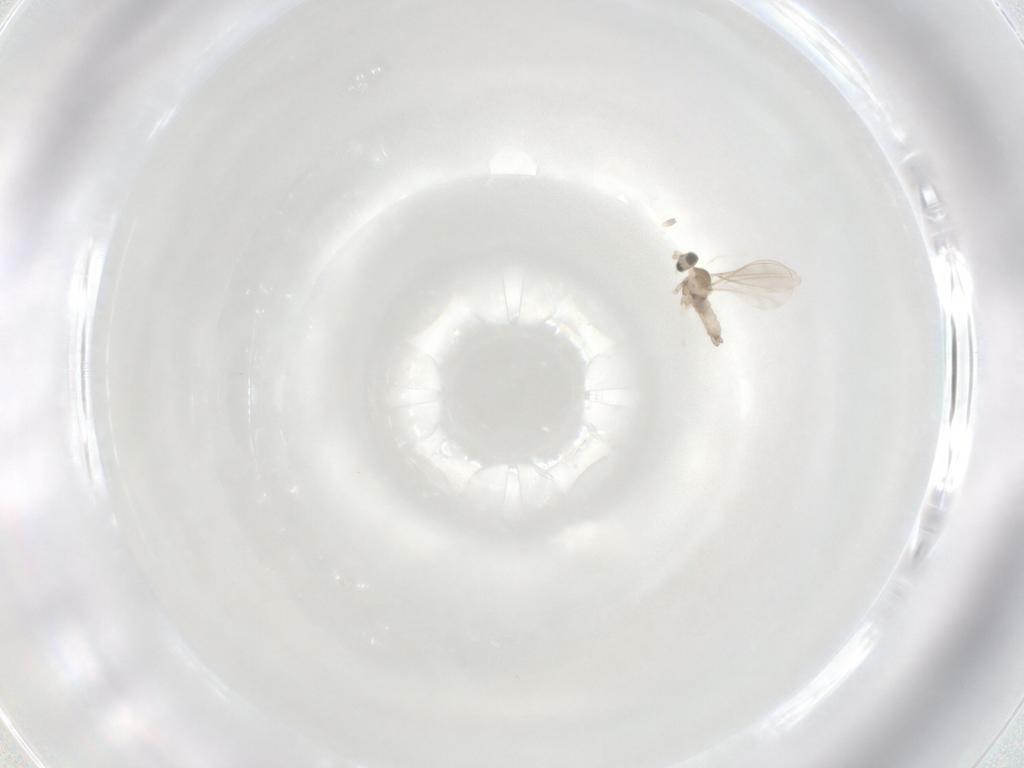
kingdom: Animalia
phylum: Arthropoda
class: Insecta
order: Diptera
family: Cecidomyiidae
